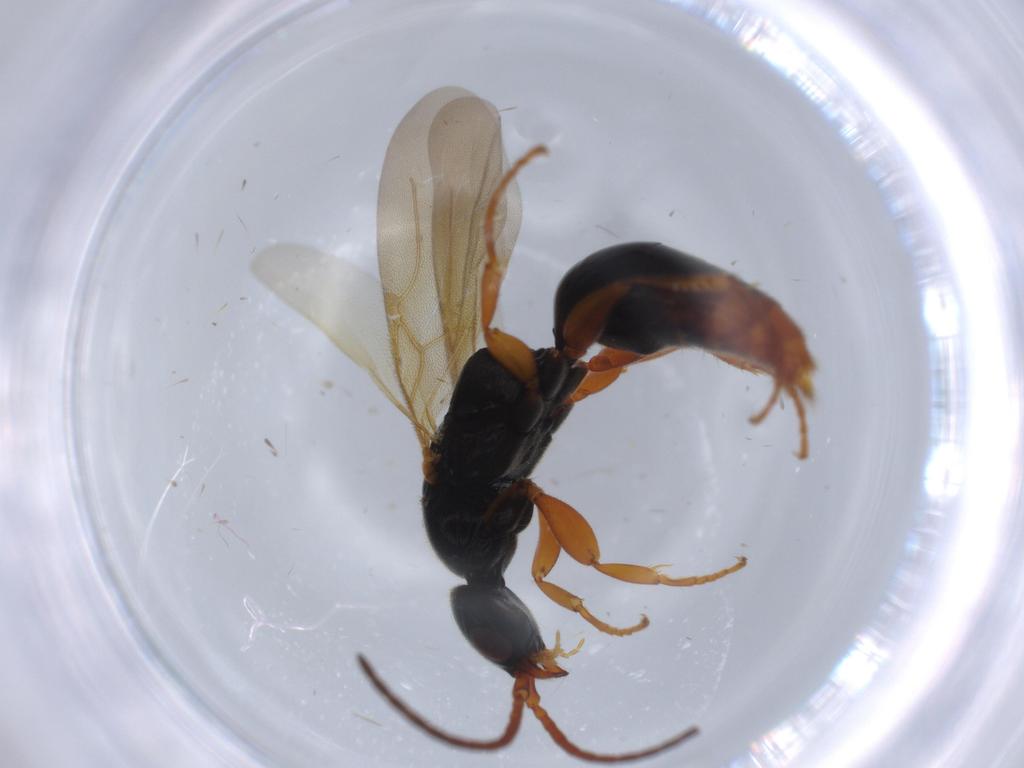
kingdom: Animalia
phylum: Arthropoda
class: Insecta
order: Hymenoptera
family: Bethylidae
